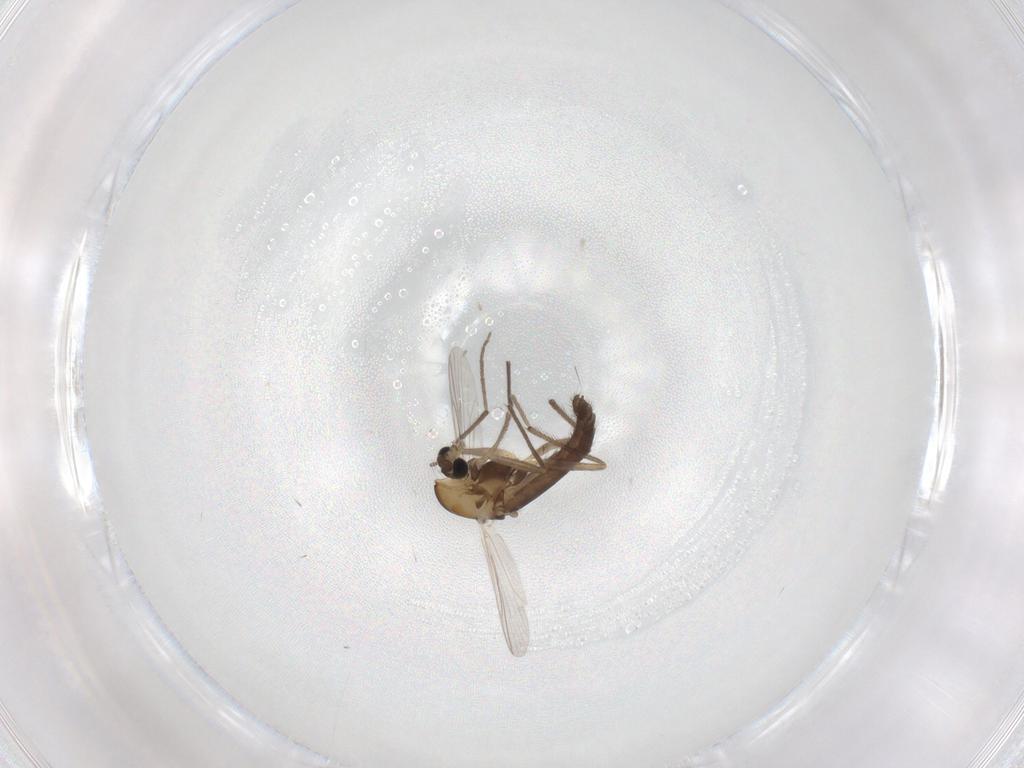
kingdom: Animalia
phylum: Arthropoda
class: Insecta
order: Diptera
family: Chironomidae
